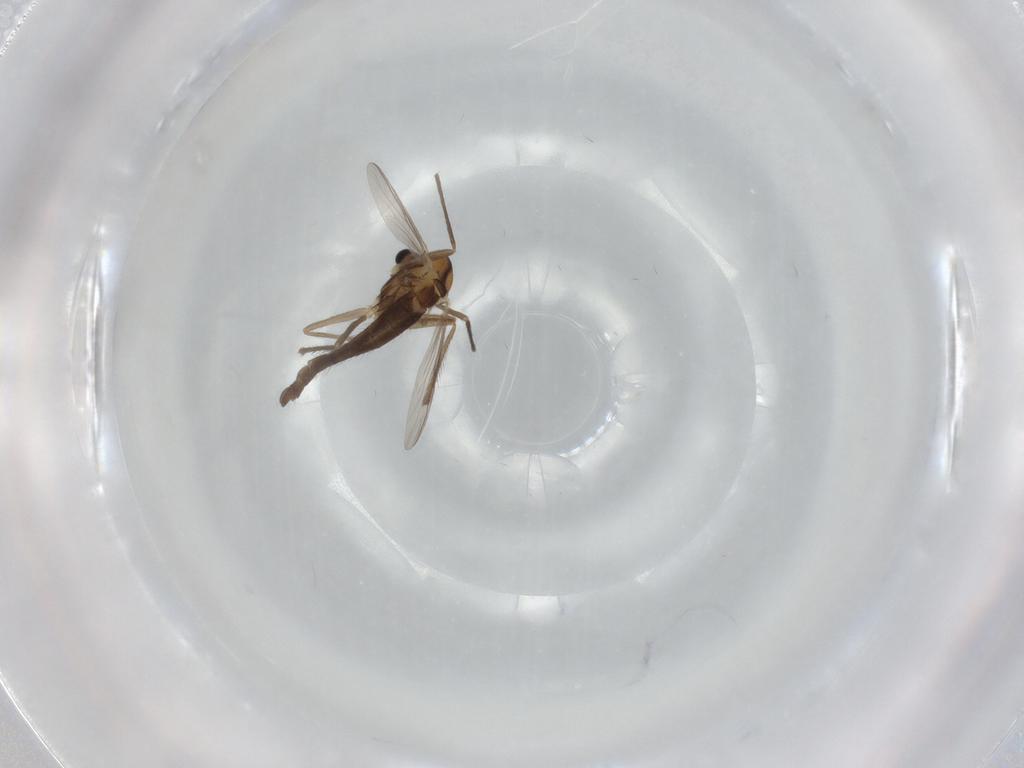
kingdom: Animalia
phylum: Arthropoda
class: Insecta
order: Diptera
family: Chironomidae
